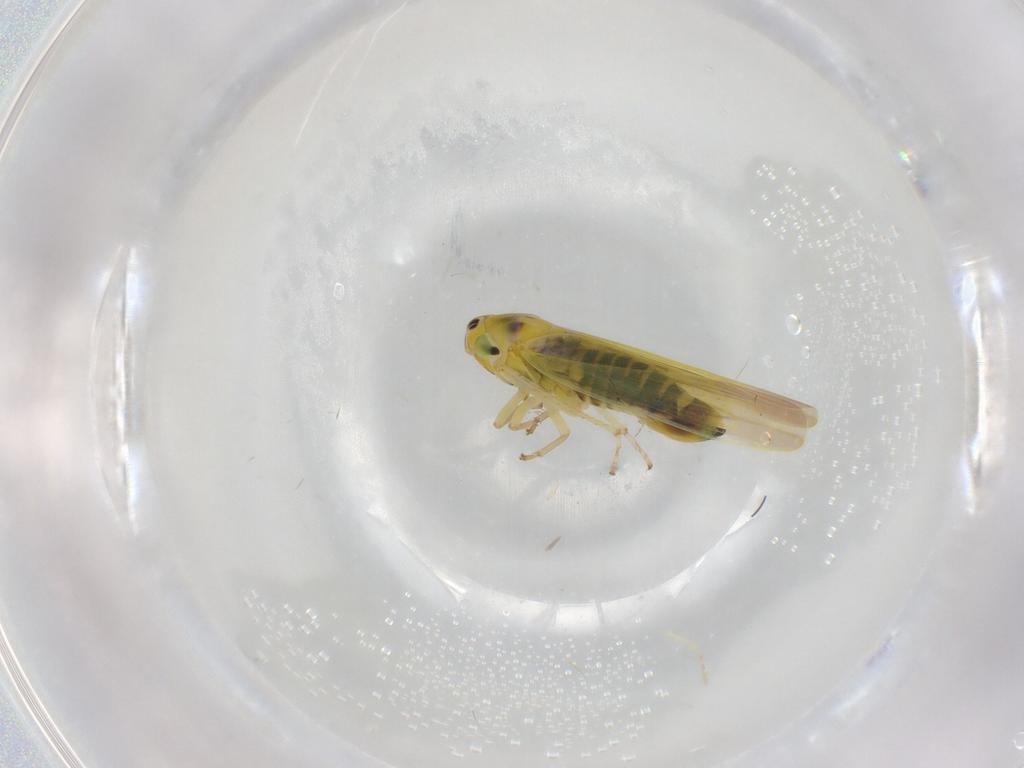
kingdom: Animalia
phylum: Arthropoda
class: Insecta
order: Hemiptera
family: Cicadellidae
